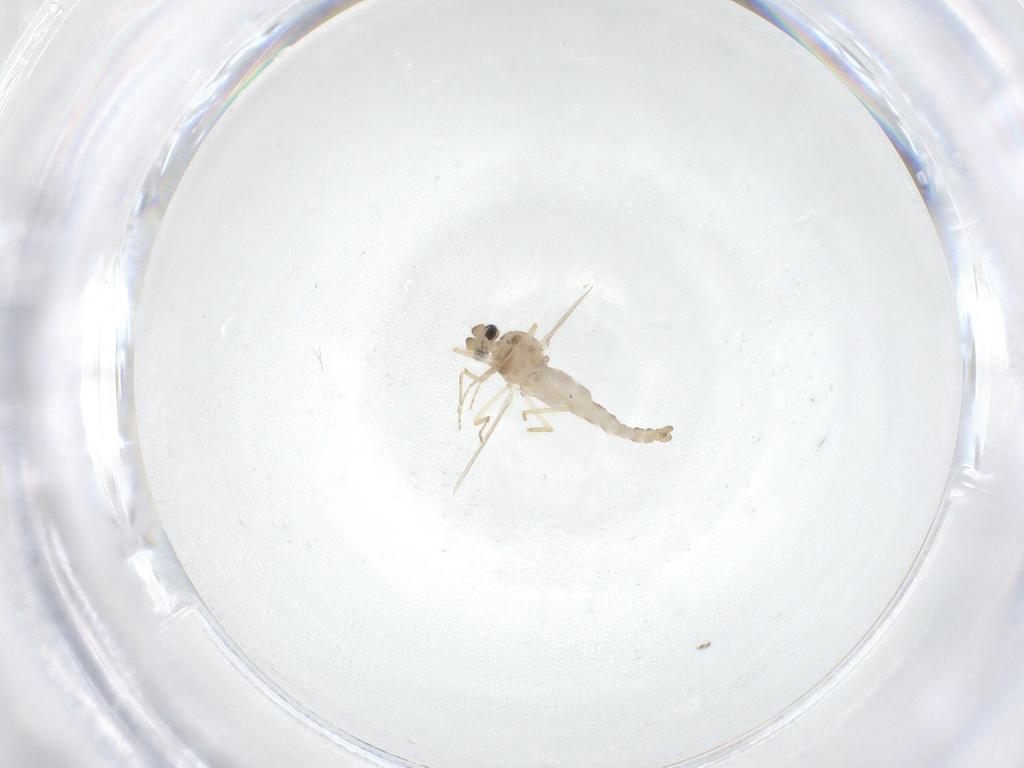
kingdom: Animalia
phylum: Arthropoda
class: Insecta
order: Diptera
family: Ceratopogonidae
